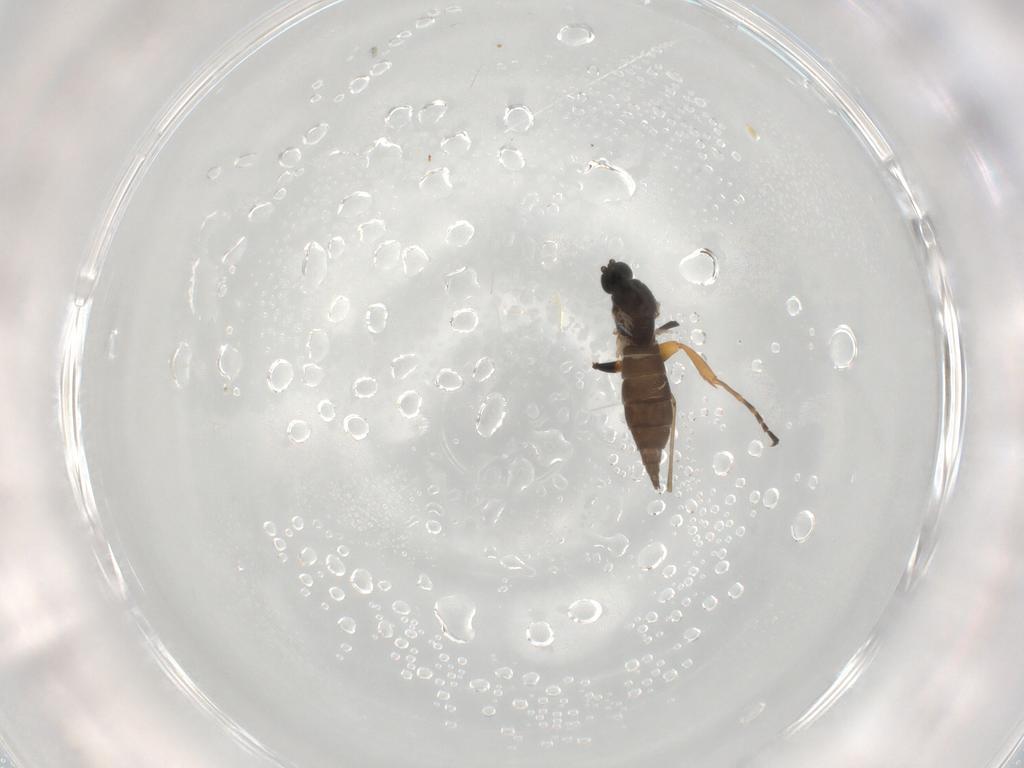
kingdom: Animalia
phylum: Arthropoda
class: Insecta
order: Diptera
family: Sciaridae
